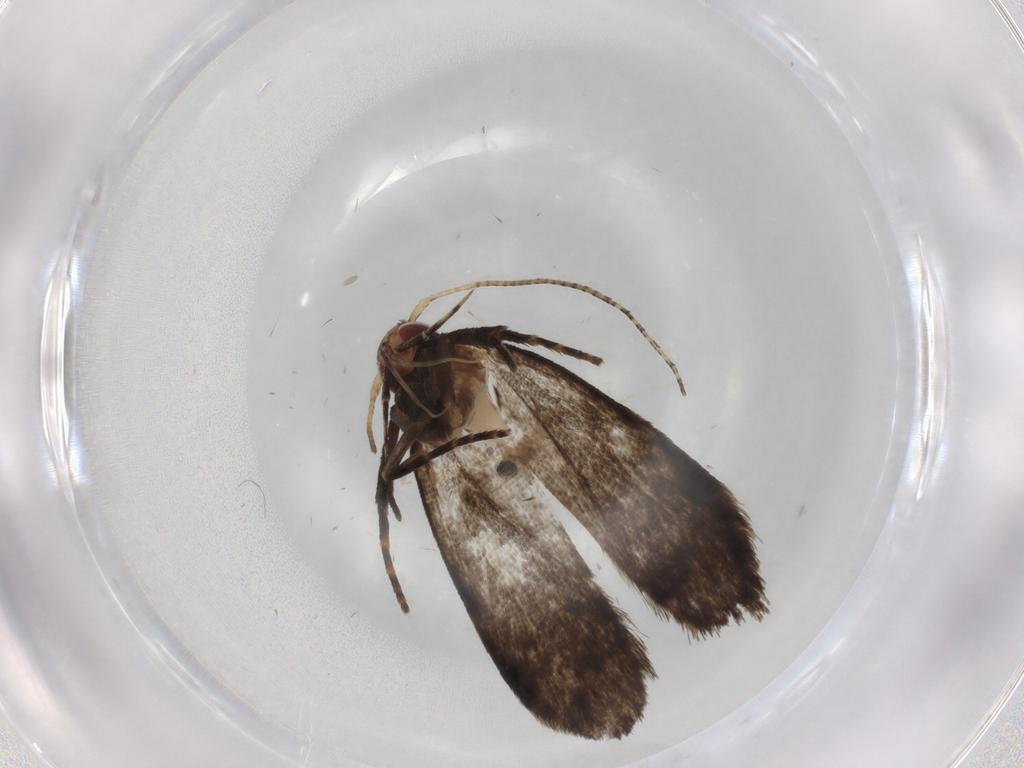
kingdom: Animalia
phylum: Arthropoda
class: Insecta
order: Lepidoptera
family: Gelechiidae
